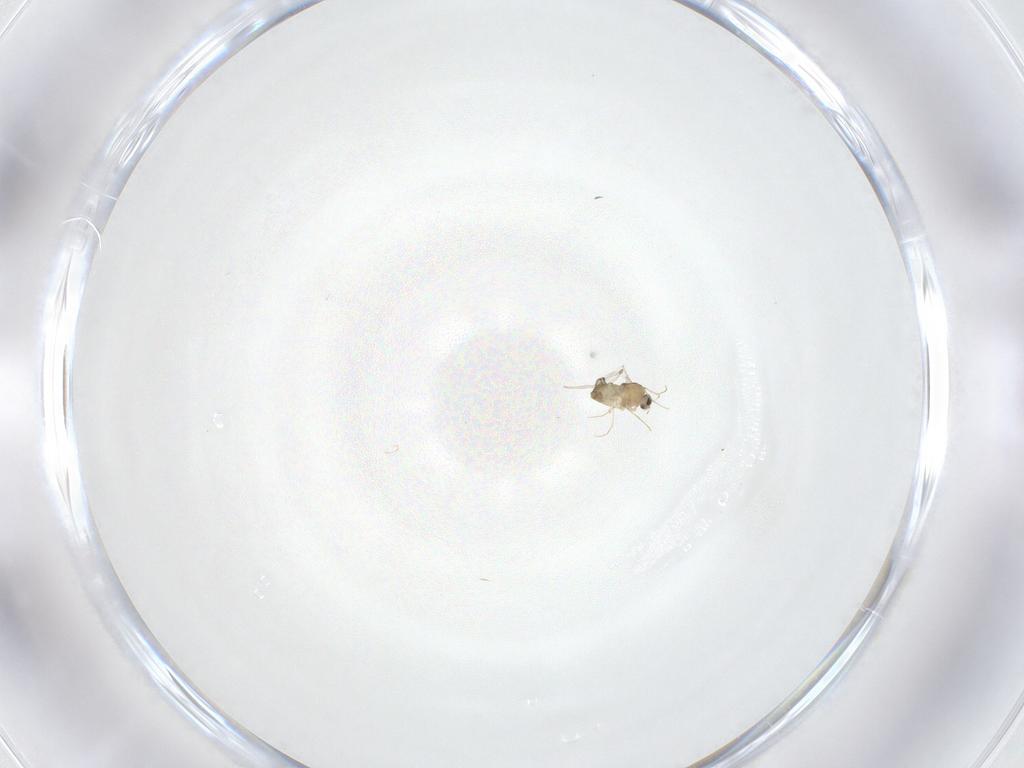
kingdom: Animalia
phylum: Arthropoda
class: Insecta
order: Diptera
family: Chironomidae
